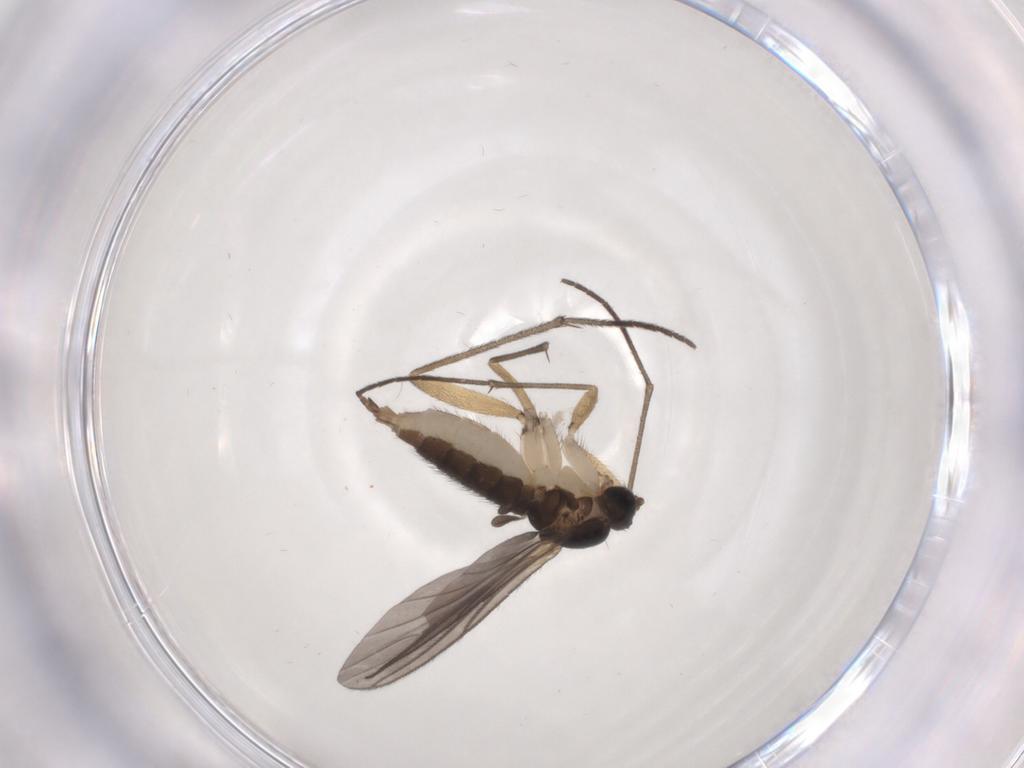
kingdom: Animalia
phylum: Arthropoda
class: Insecta
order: Diptera
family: Sciaridae
